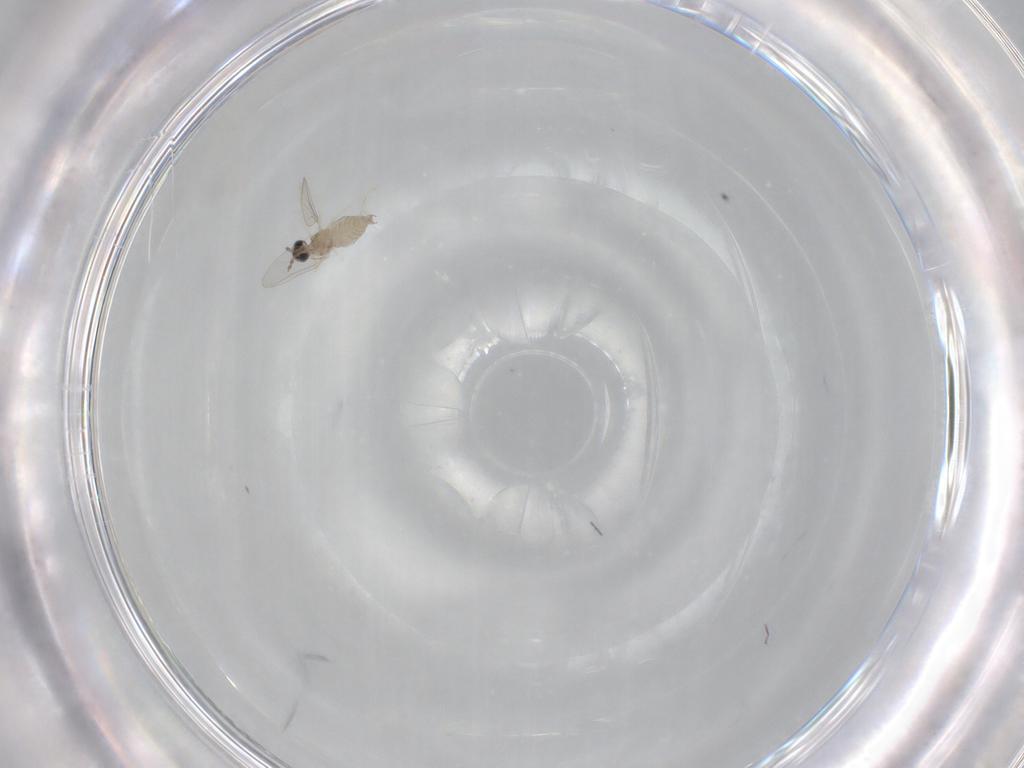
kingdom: Animalia
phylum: Arthropoda
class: Insecta
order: Diptera
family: Cecidomyiidae
